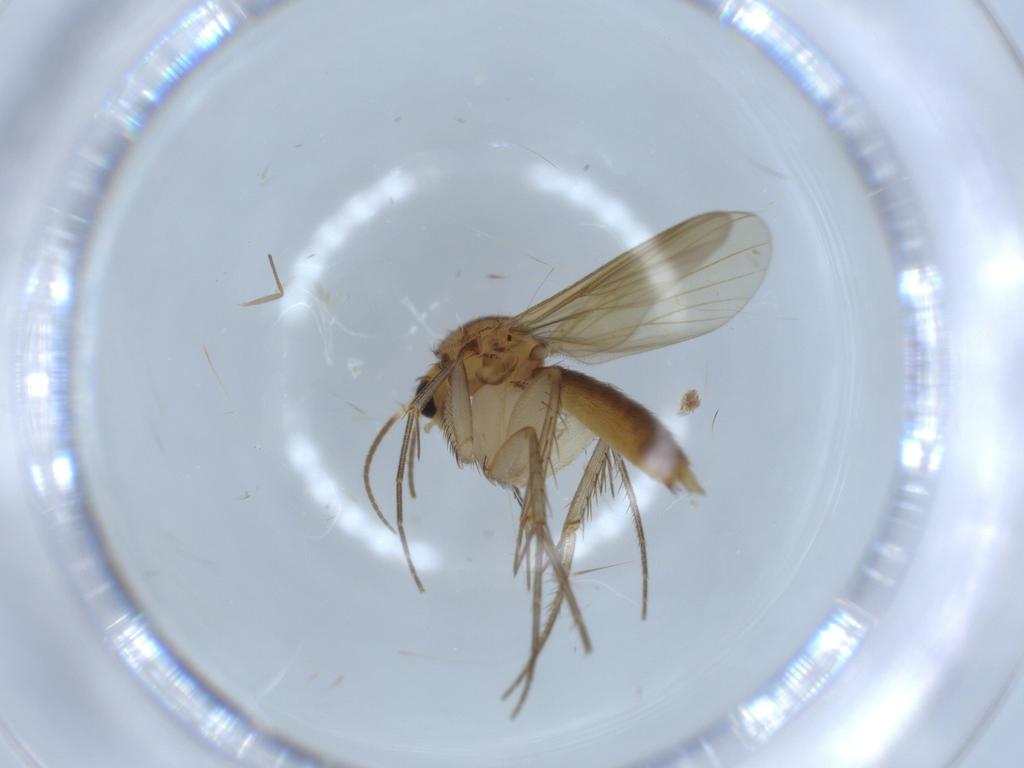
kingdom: Animalia
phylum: Arthropoda
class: Insecta
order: Diptera
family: Mycetophilidae
